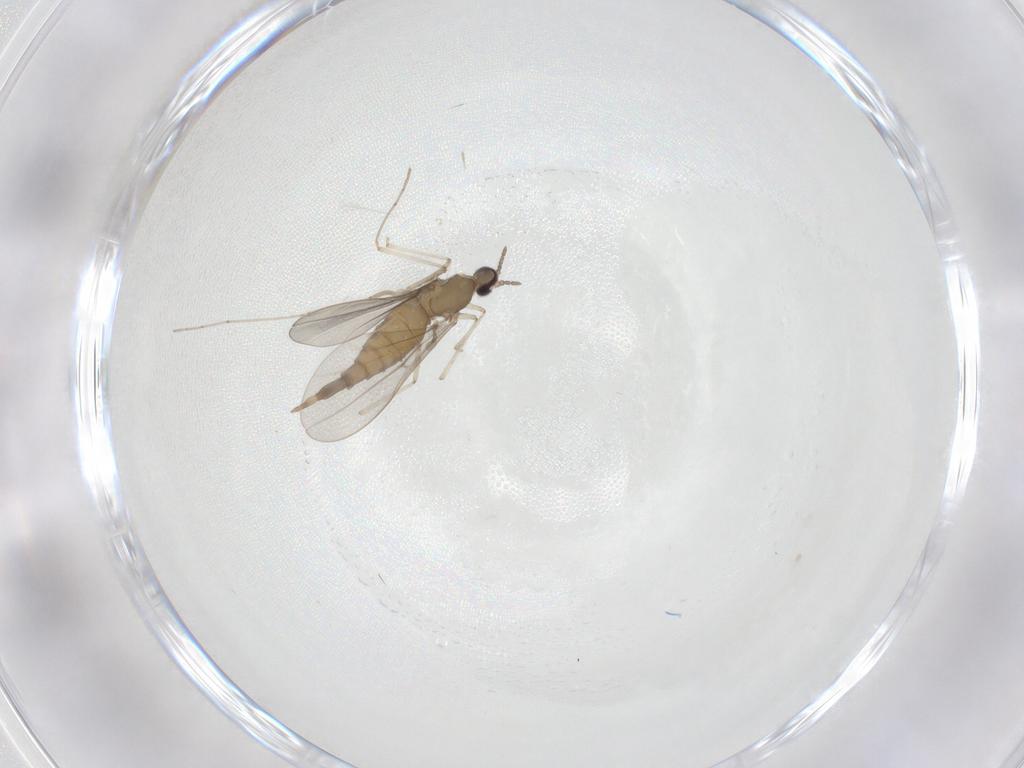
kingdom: Animalia
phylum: Arthropoda
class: Insecta
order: Diptera
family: Cecidomyiidae
